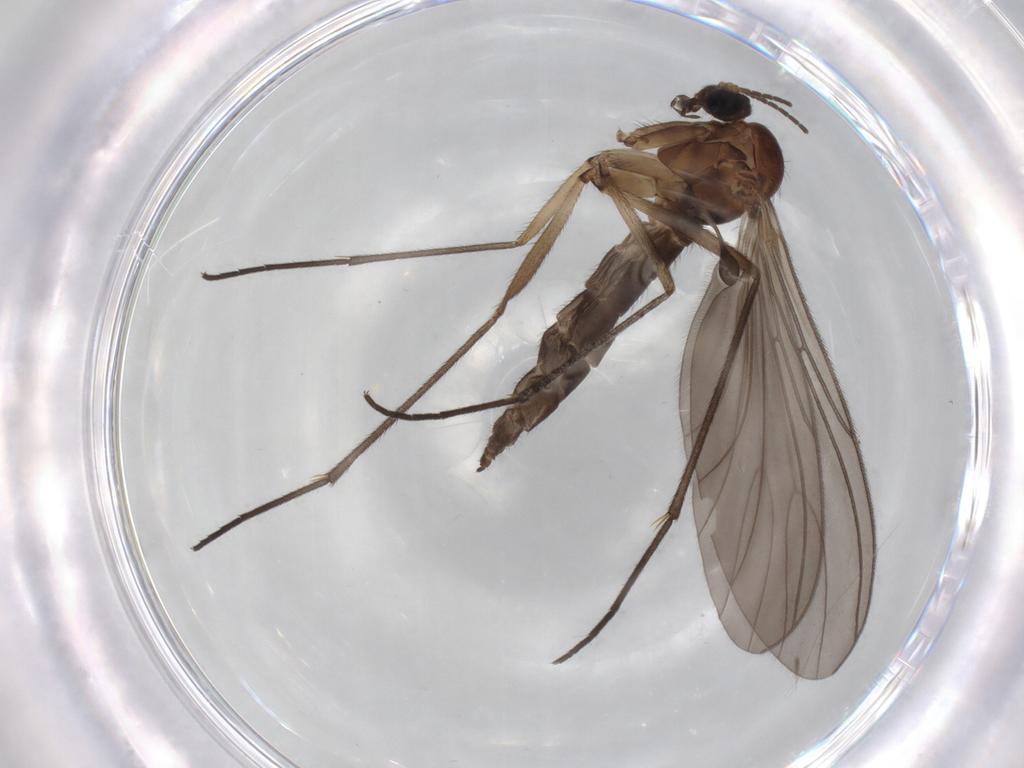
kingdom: Animalia
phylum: Arthropoda
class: Insecta
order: Diptera
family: Sciaridae
